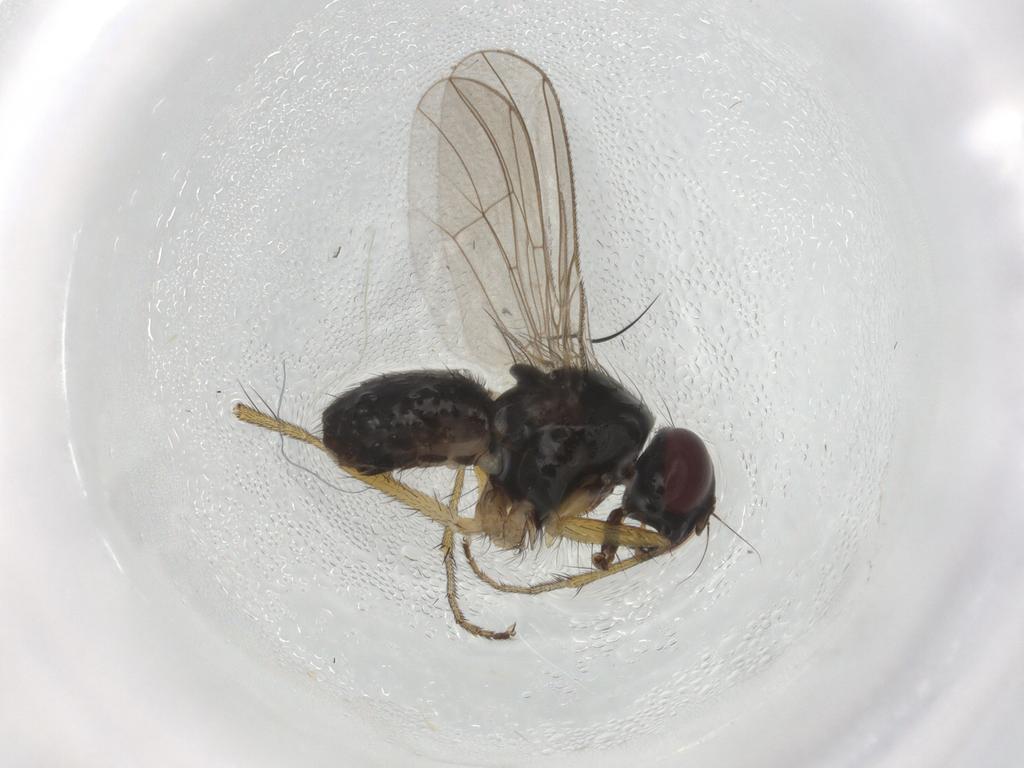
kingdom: Animalia
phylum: Arthropoda
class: Insecta
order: Diptera
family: Muscidae
